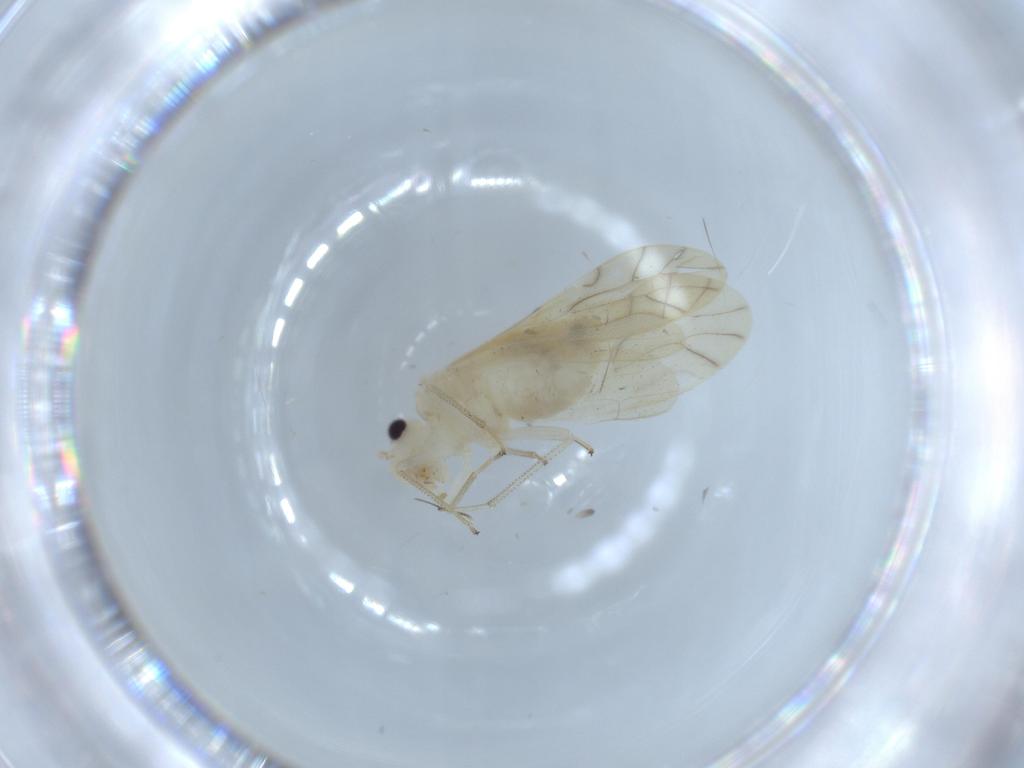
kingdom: Animalia
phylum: Arthropoda
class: Insecta
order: Psocodea
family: Caeciliusidae
